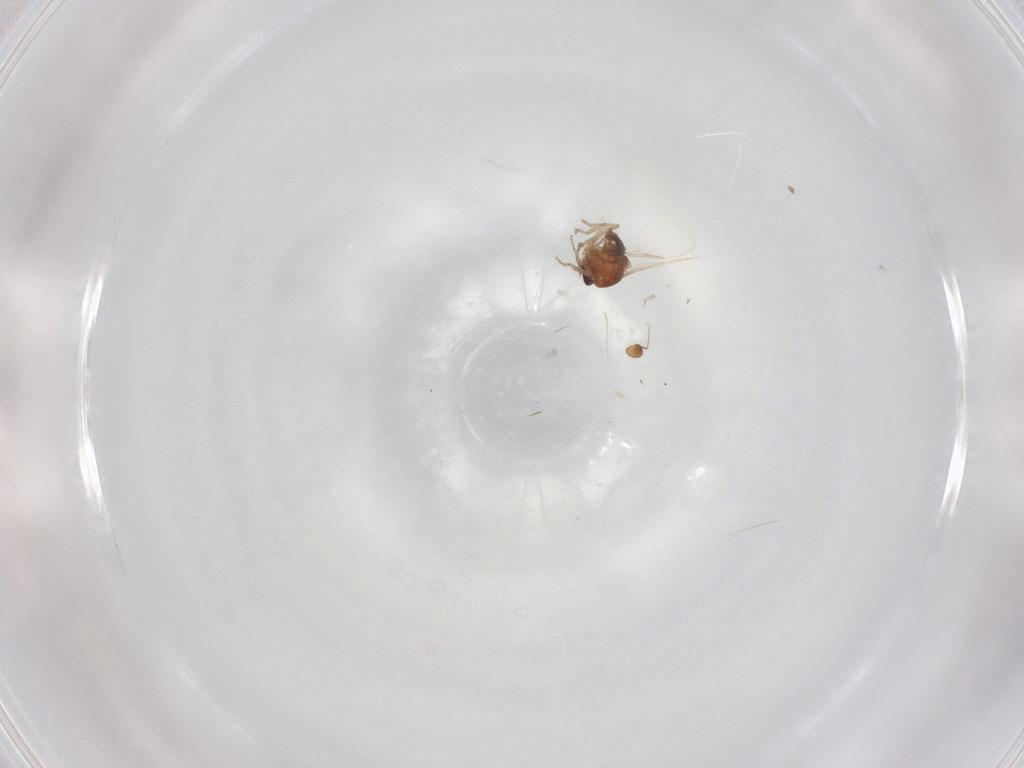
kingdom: Animalia
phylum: Arthropoda
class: Insecta
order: Diptera
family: Ceratopogonidae
